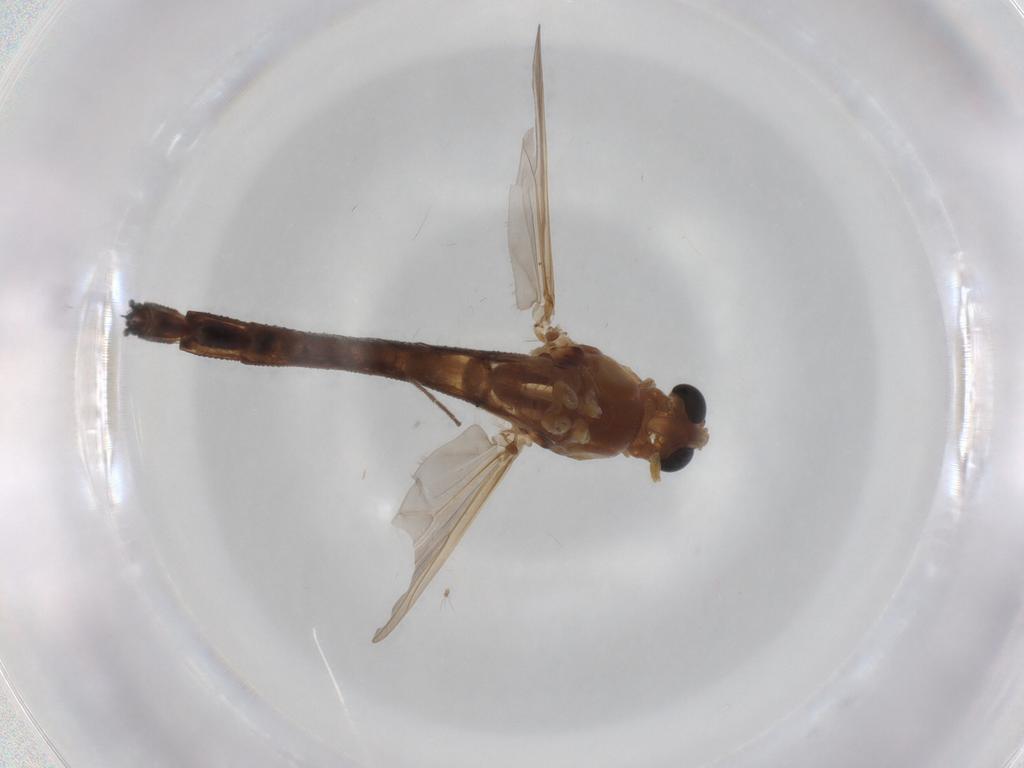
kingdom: Animalia
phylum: Arthropoda
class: Insecta
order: Diptera
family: Chironomidae
